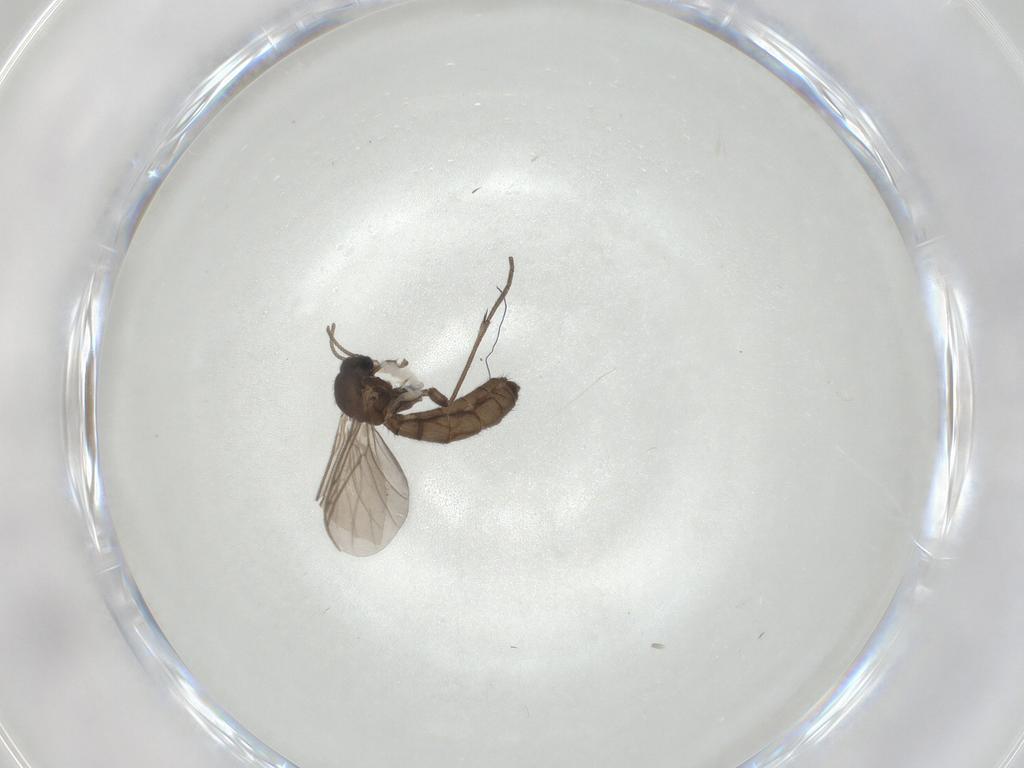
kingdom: Animalia
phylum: Arthropoda
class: Insecta
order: Diptera
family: Keroplatidae
